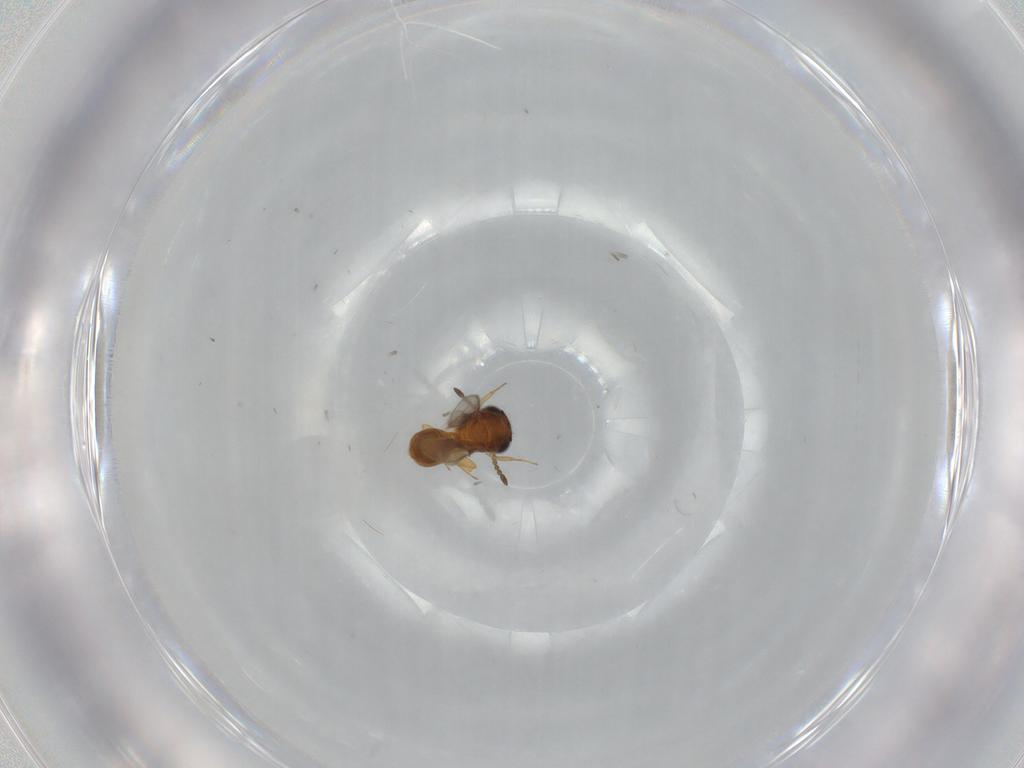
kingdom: Animalia
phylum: Arthropoda
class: Insecta
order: Hymenoptera
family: Scelionidae
